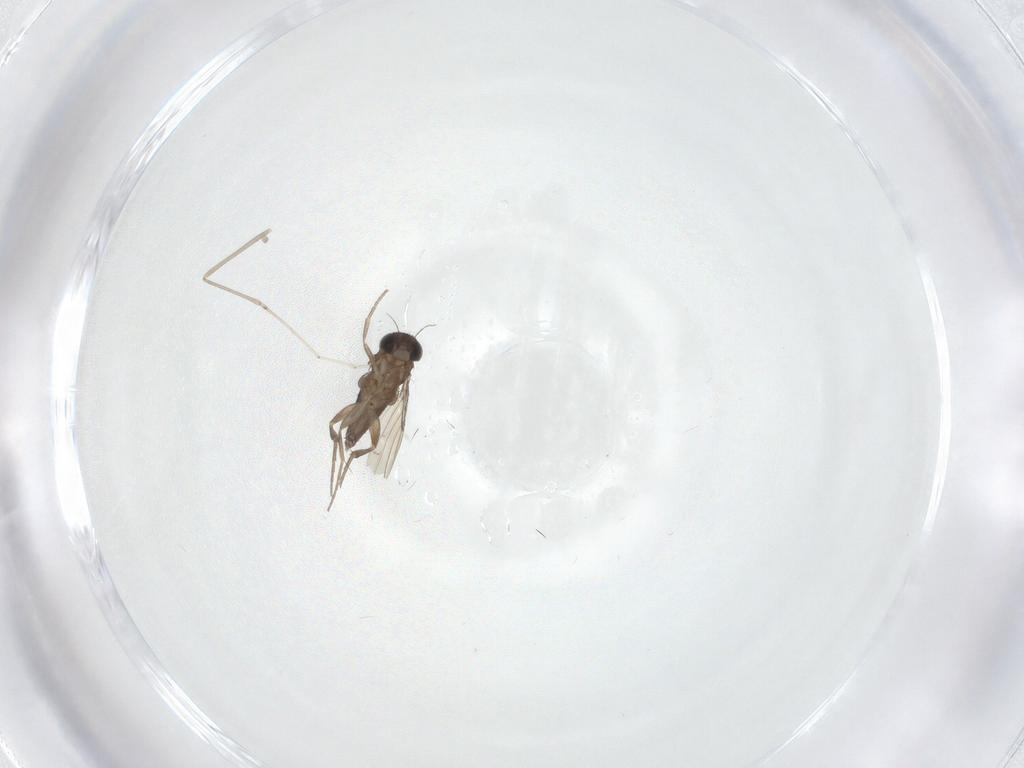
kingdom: Animalia
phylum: Arthropoda
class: Insecta
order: Diptera
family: Phoridae
